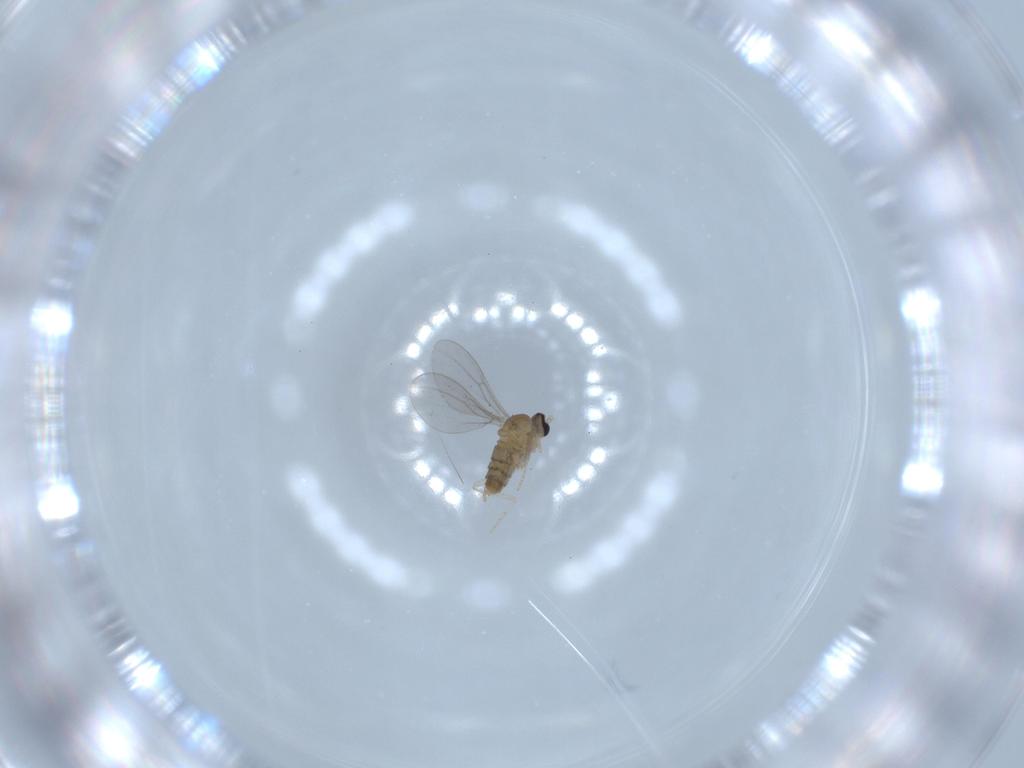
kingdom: Animalia
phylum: Arthropoda
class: Insecta
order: Diptera
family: Cecidomyiidae
